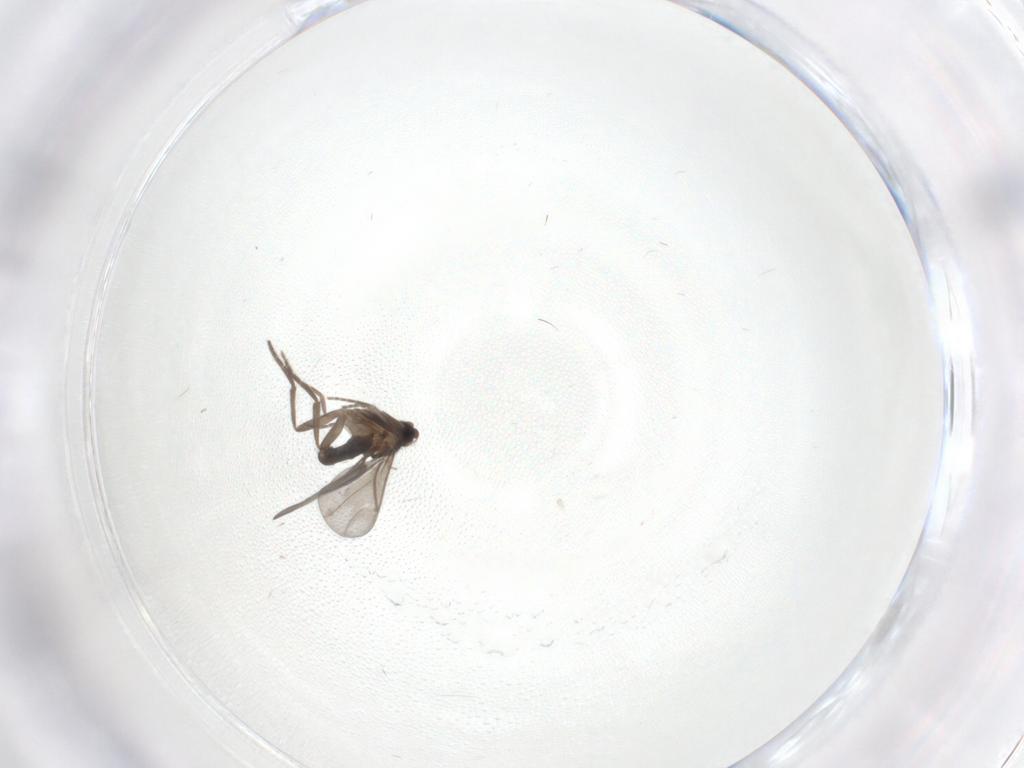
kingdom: Animalia
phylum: Arthropoda
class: Insecta
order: Diptera
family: Phoridae
